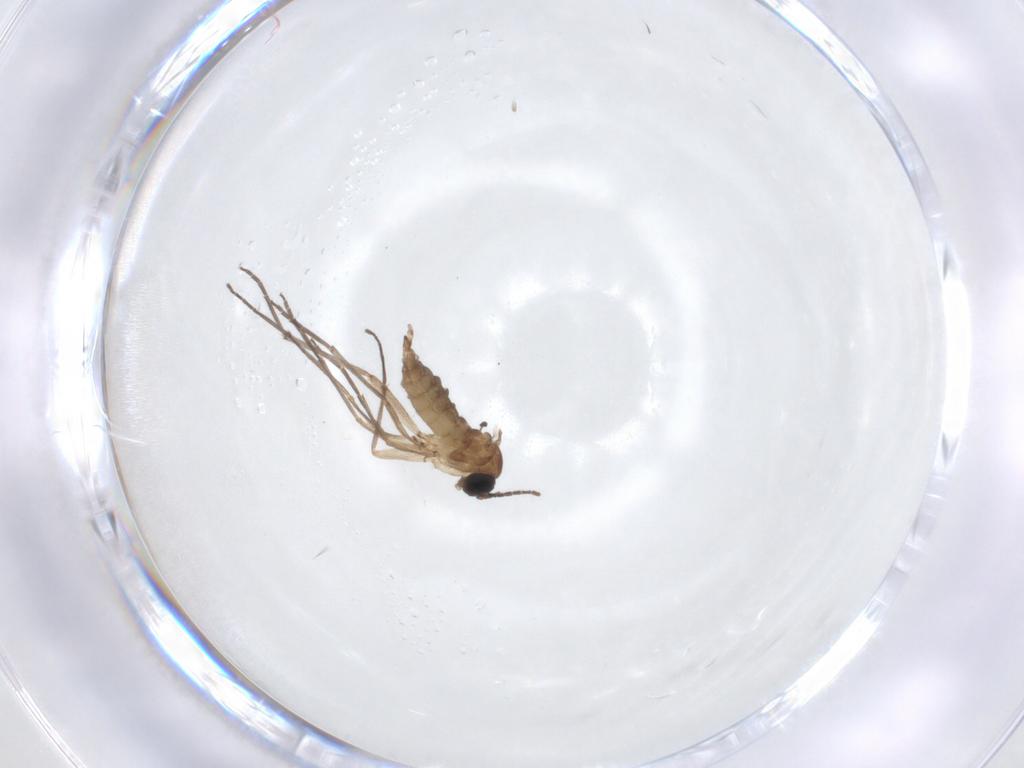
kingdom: Animalia
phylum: Arthropoda
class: Insecta
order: Diptera
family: Sciaridae
